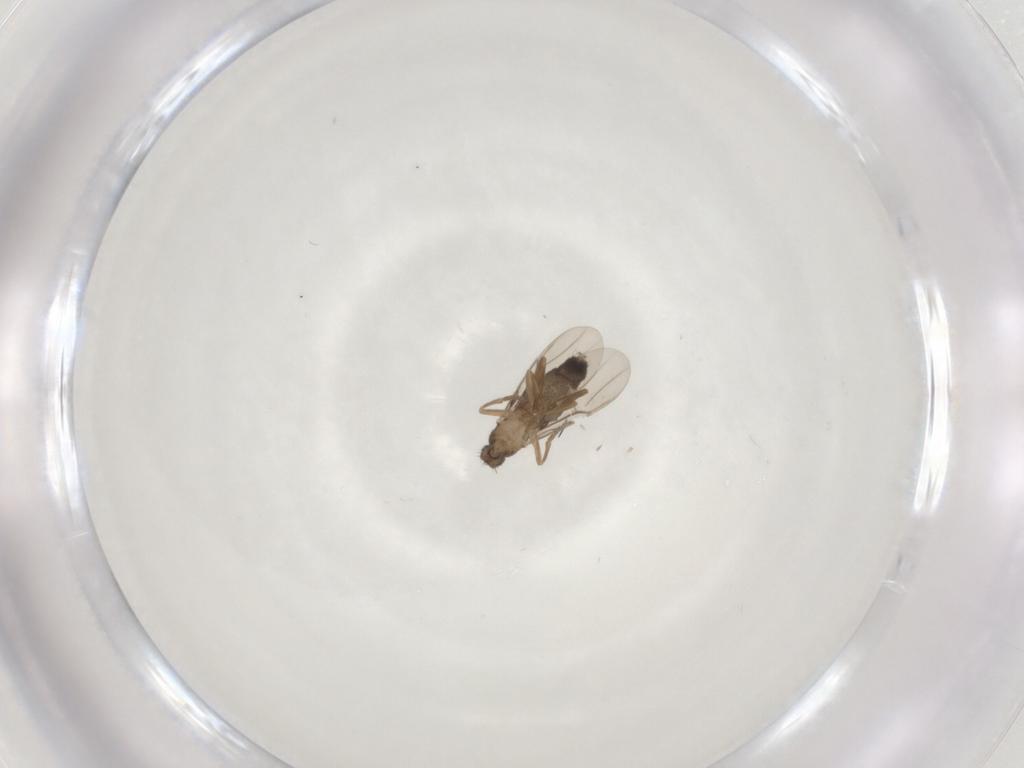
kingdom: Animalia
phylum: Arthropoda
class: Insecta
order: Diptera
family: Phoridae
